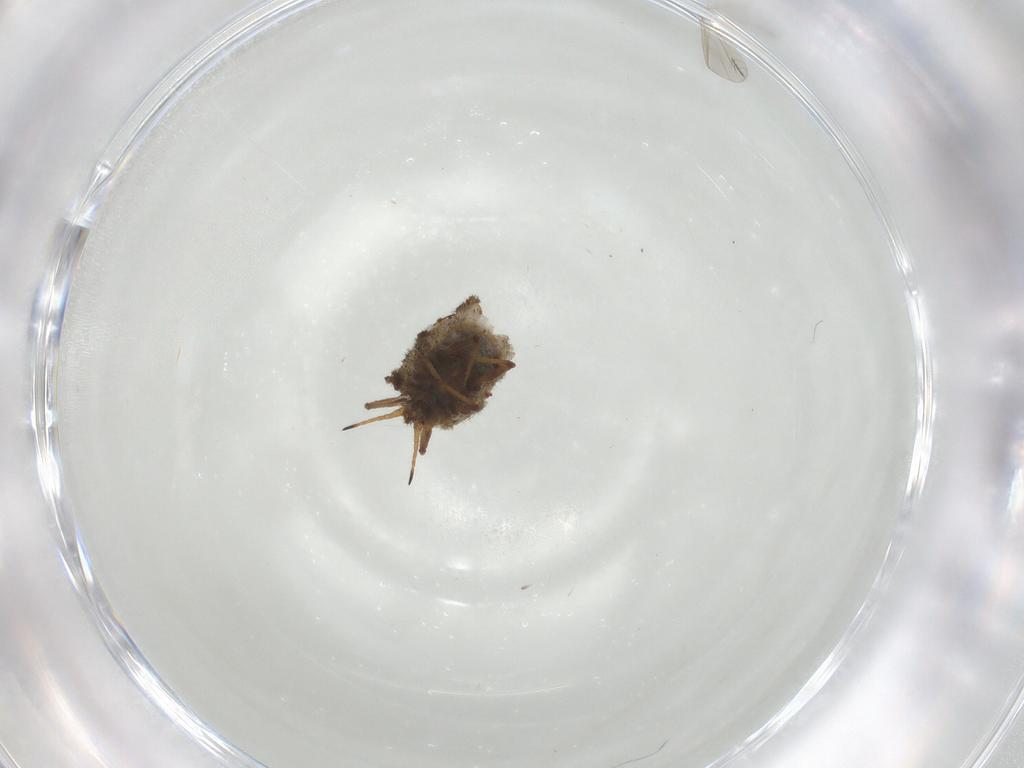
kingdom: Animalia
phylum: Arthropoda
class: Insecta
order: Diptera
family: Chironomidae
